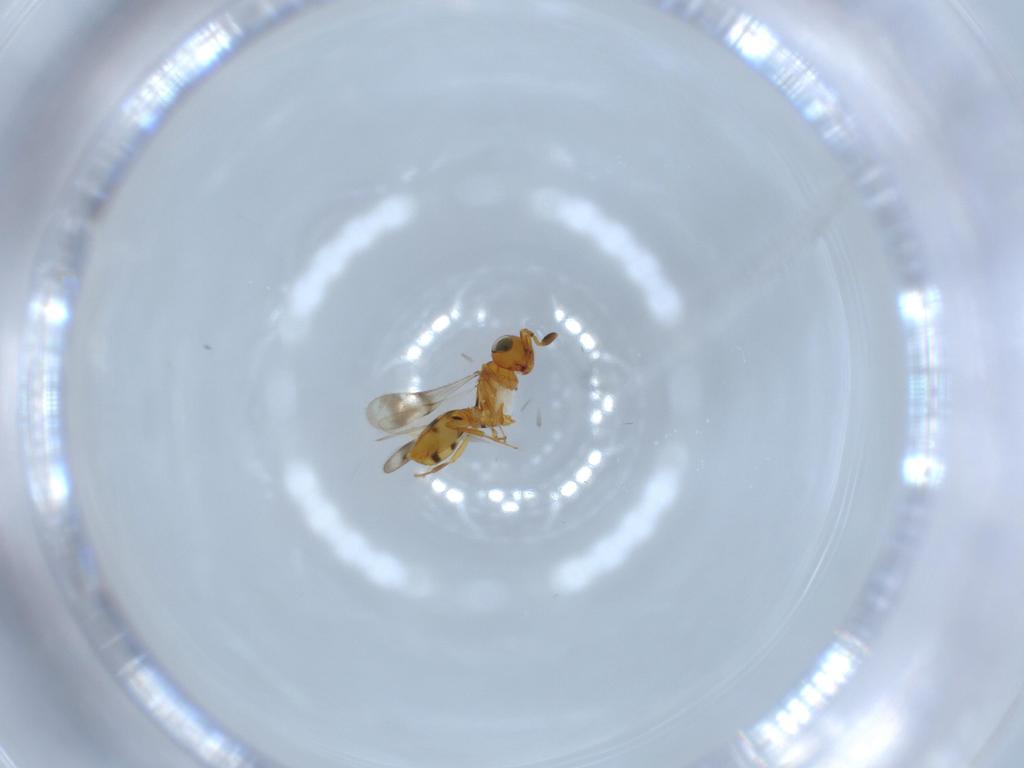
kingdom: Animalia
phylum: Arthropoda
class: Insecta
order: Hymenoptera
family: Scelionidae
